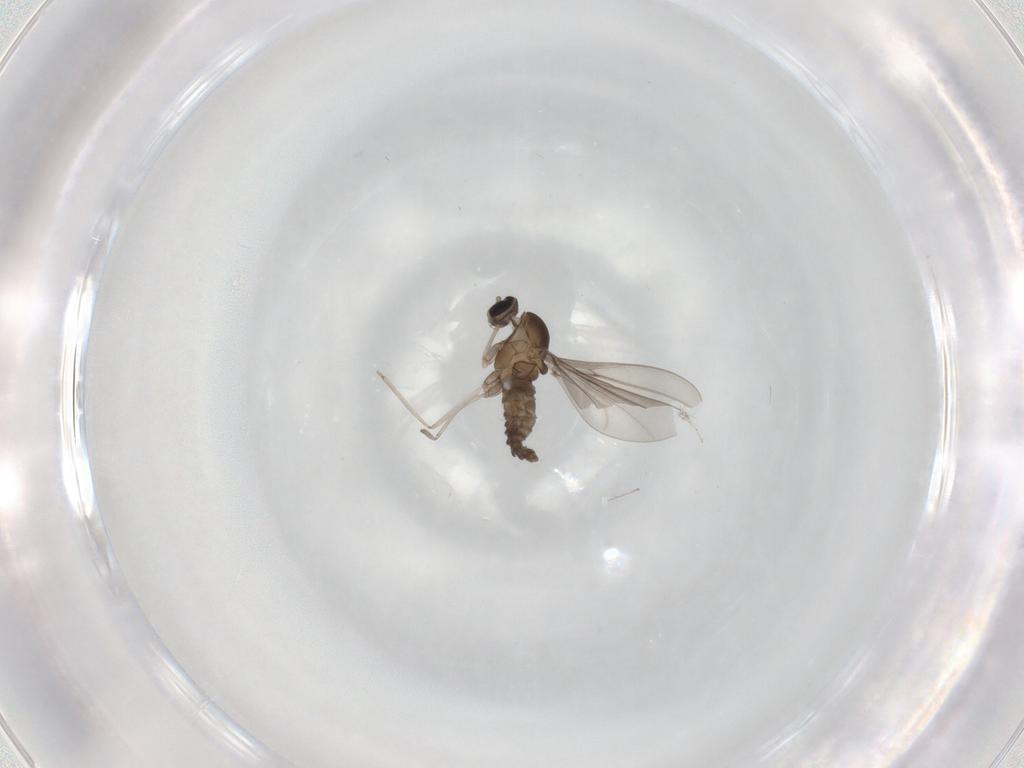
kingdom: Animalia
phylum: Arthropoda
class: Insecta
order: Diptera
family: Cecidomyiidae
